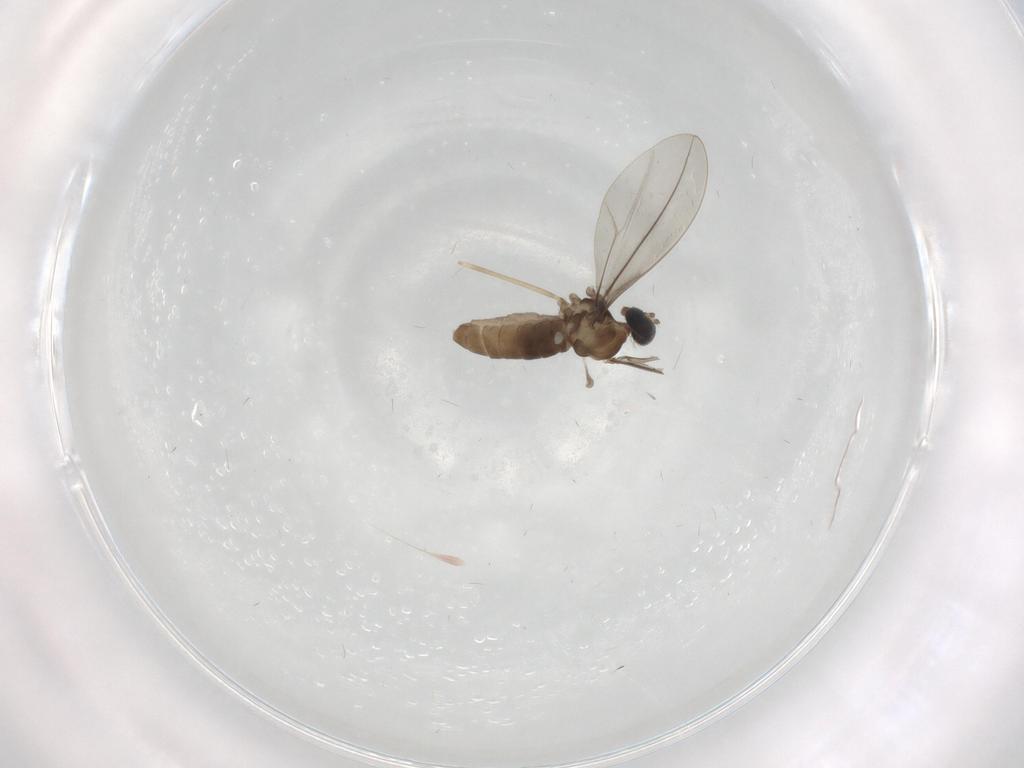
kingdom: Animalia
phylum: Arthropoda
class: Insecta
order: Diptera
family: Cecidomyiidae
